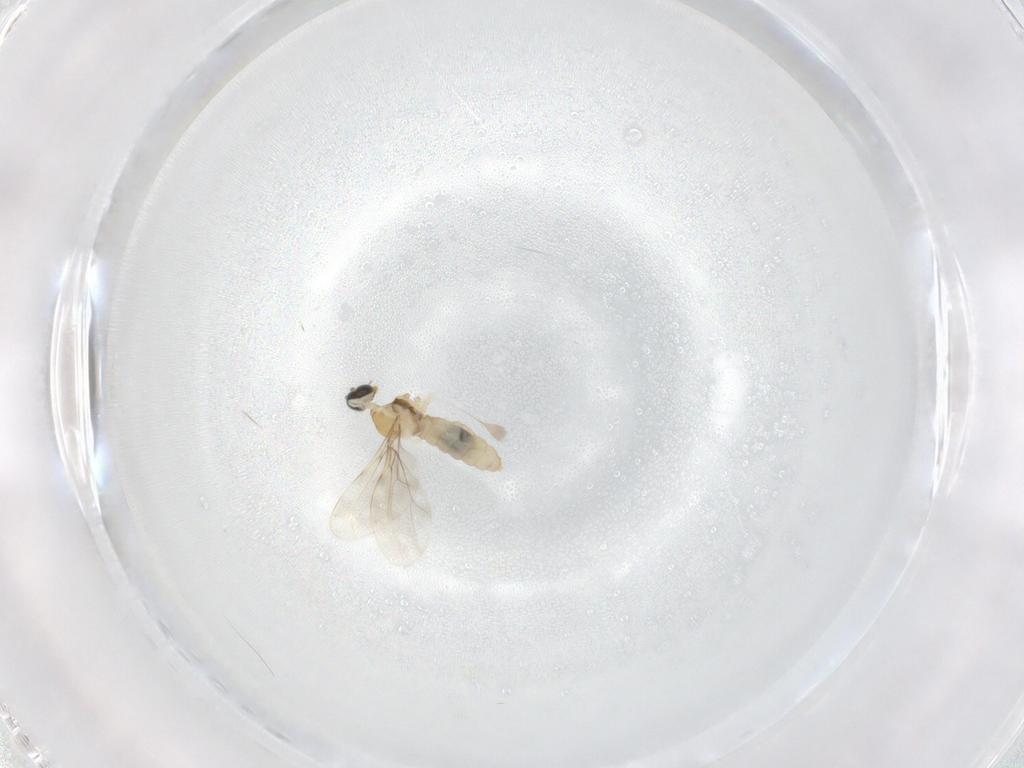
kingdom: Animalia
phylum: Arthropoda
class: Insecta
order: Diptera
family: Cecidomyiidae
